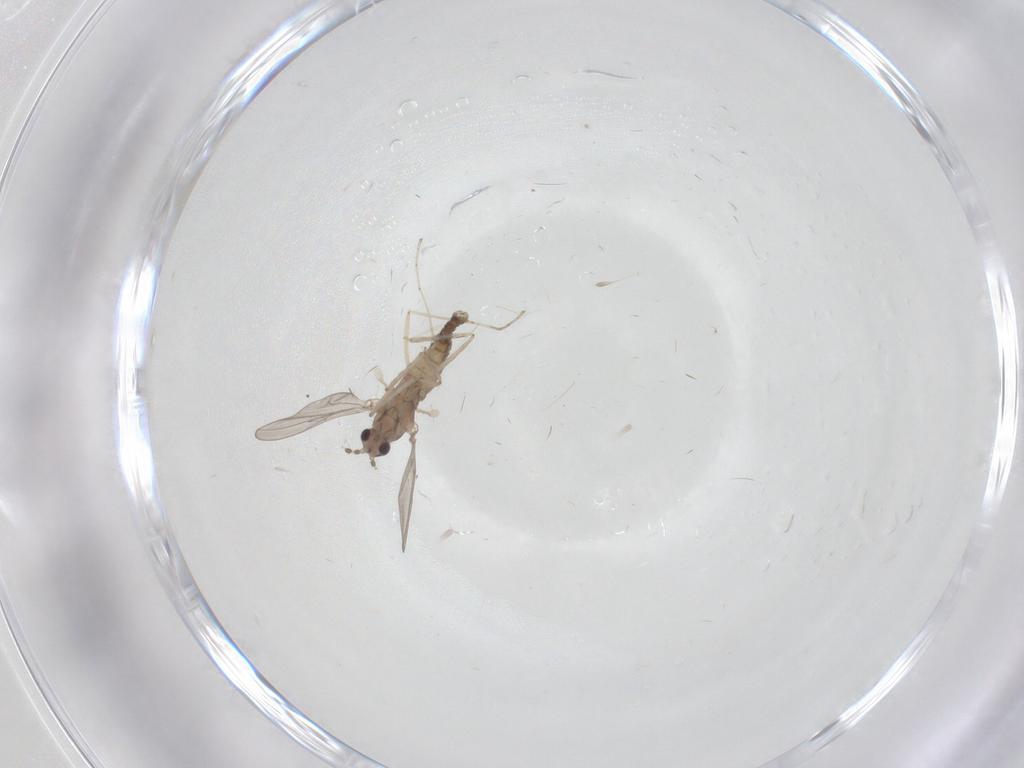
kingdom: Animalia
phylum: Arthropoda
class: Insecta
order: Diptera
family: Cecidomyiidae
